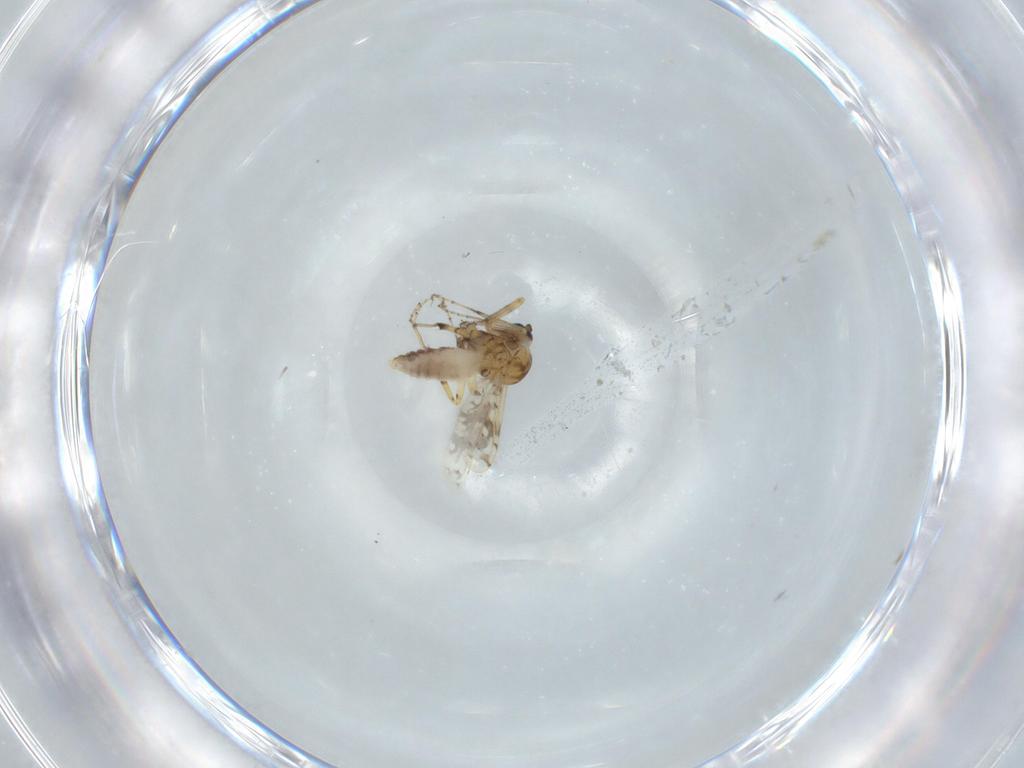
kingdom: Animalia
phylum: Arthropoda
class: Insecta
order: Diptera
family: Ceratopogonidae
